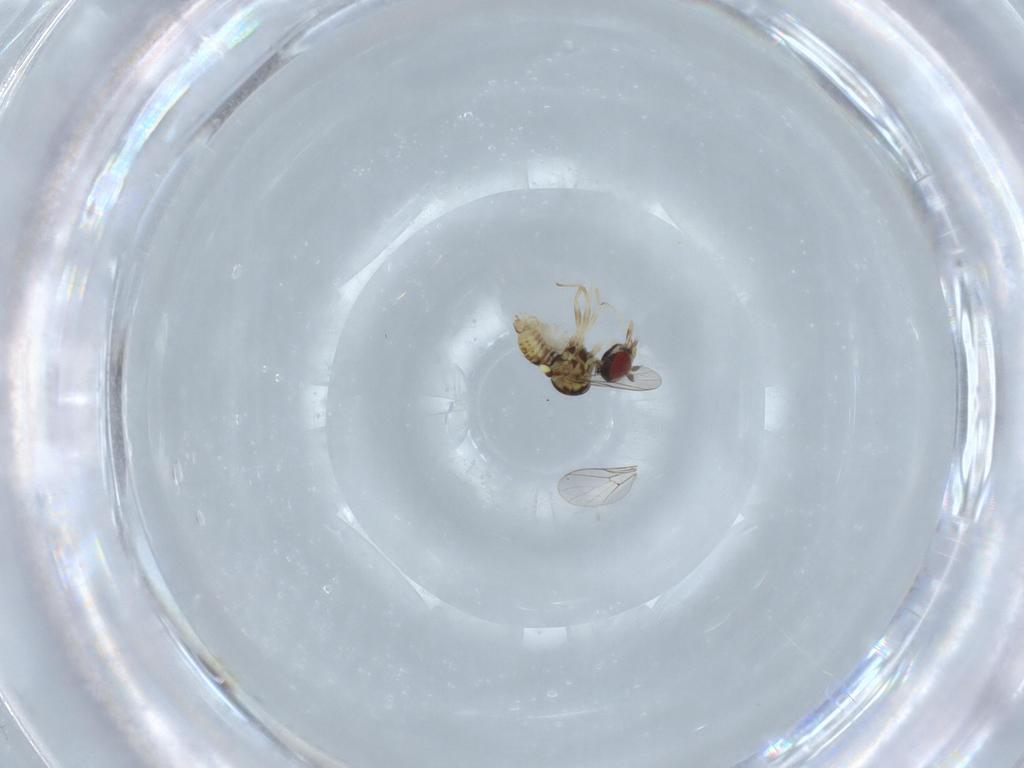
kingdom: Animalia
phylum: Arthropoda
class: Insecta
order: Diptera
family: Bombyliidae
